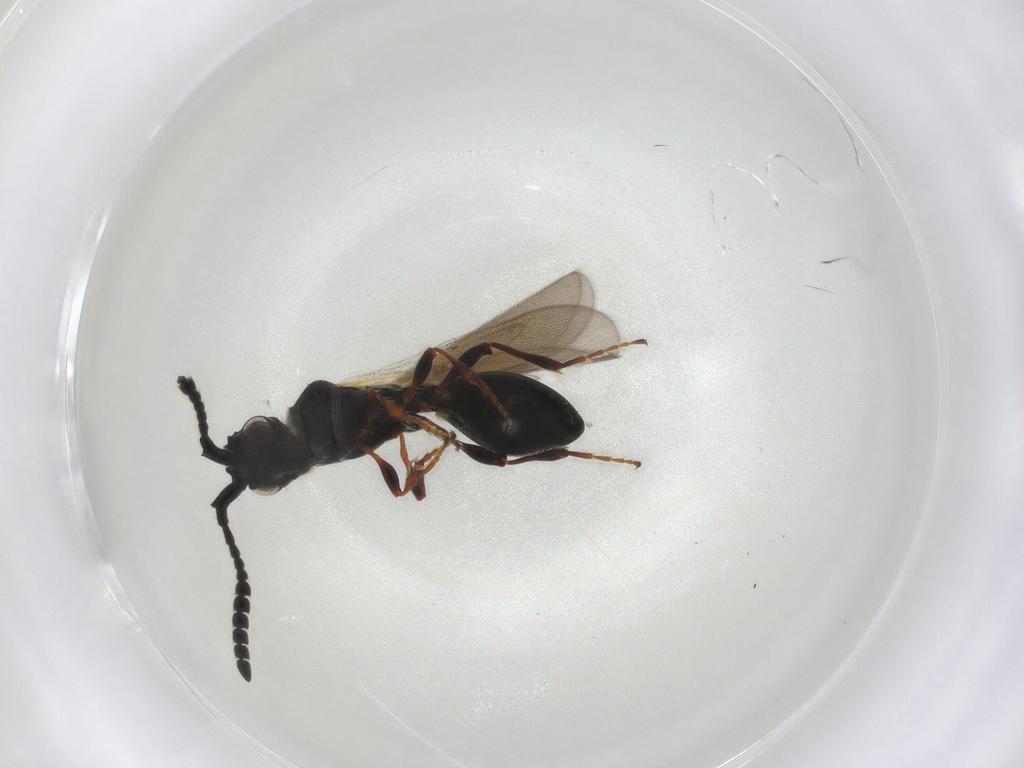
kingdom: Animalia
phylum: Arthropoda
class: Insecta
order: Hymenoptera
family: Diapriidae
